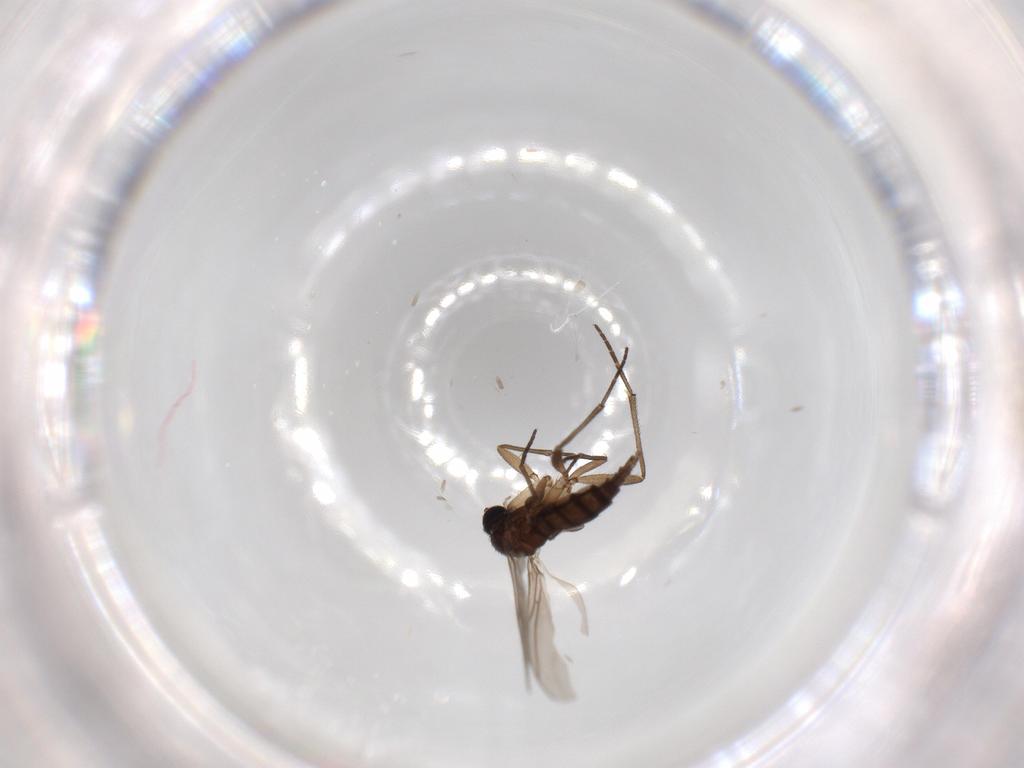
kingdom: Animalia
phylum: Arthropoda
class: Insecta
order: Diptera
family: Sciaridae
